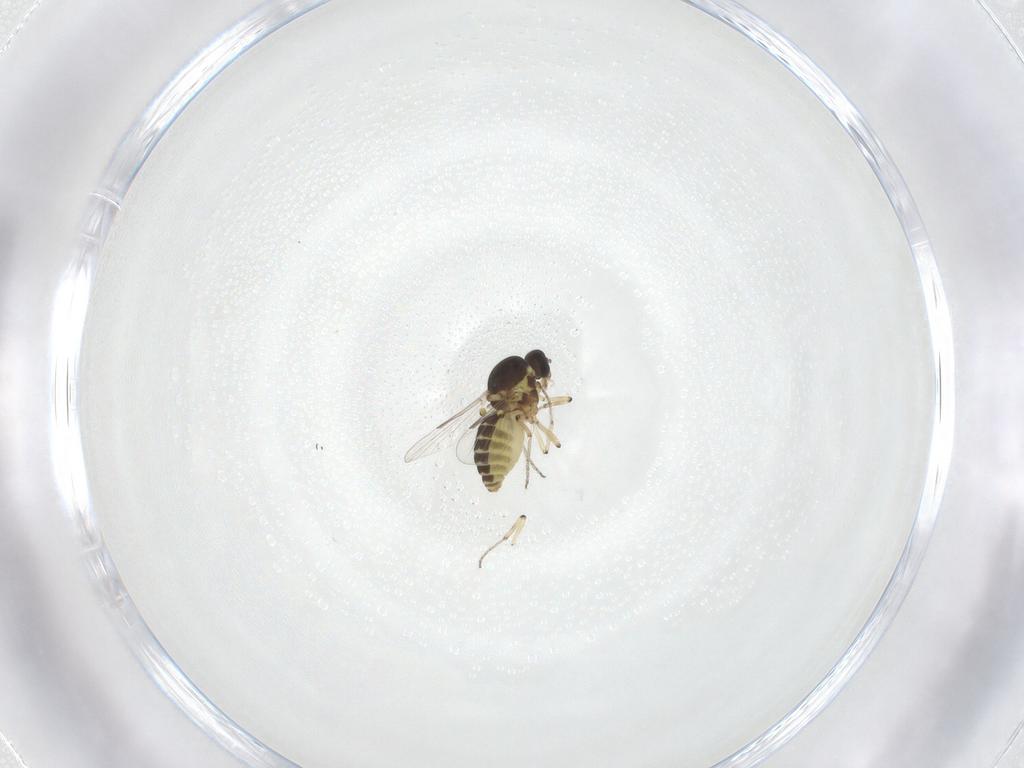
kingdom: Animalia
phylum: Arthropoda
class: Insecta
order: Diptera
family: Ceratopogonidae
